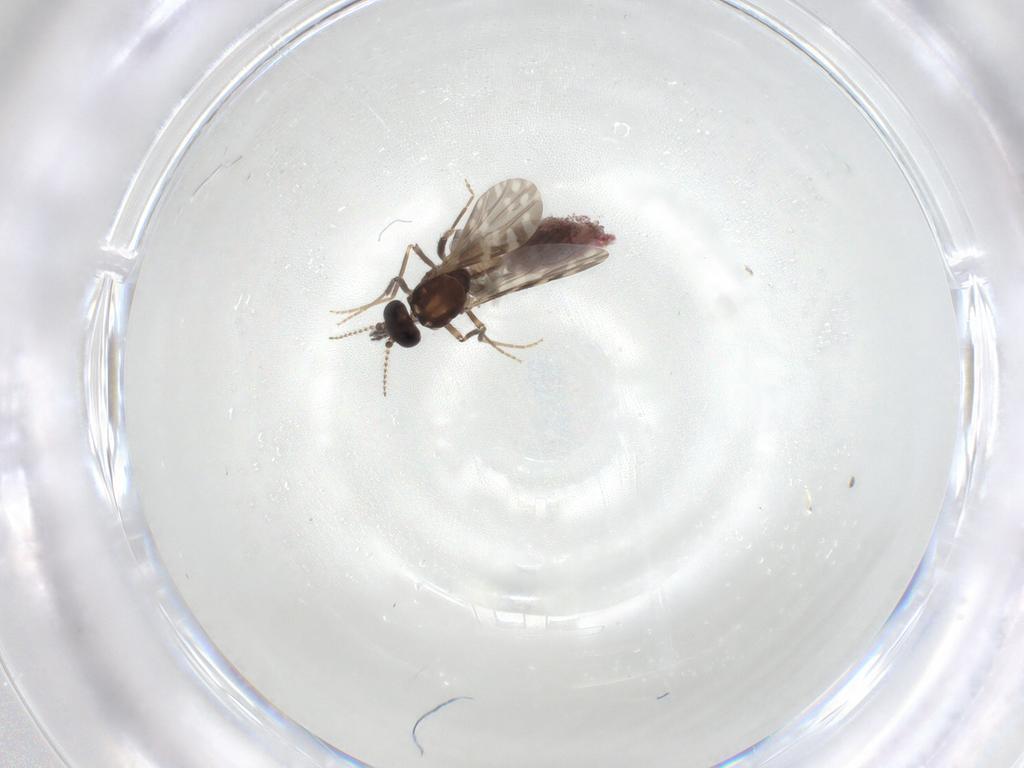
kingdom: Animalia
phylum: Arthropoda
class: Insecta
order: Diptera
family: Ceratopogonidae
